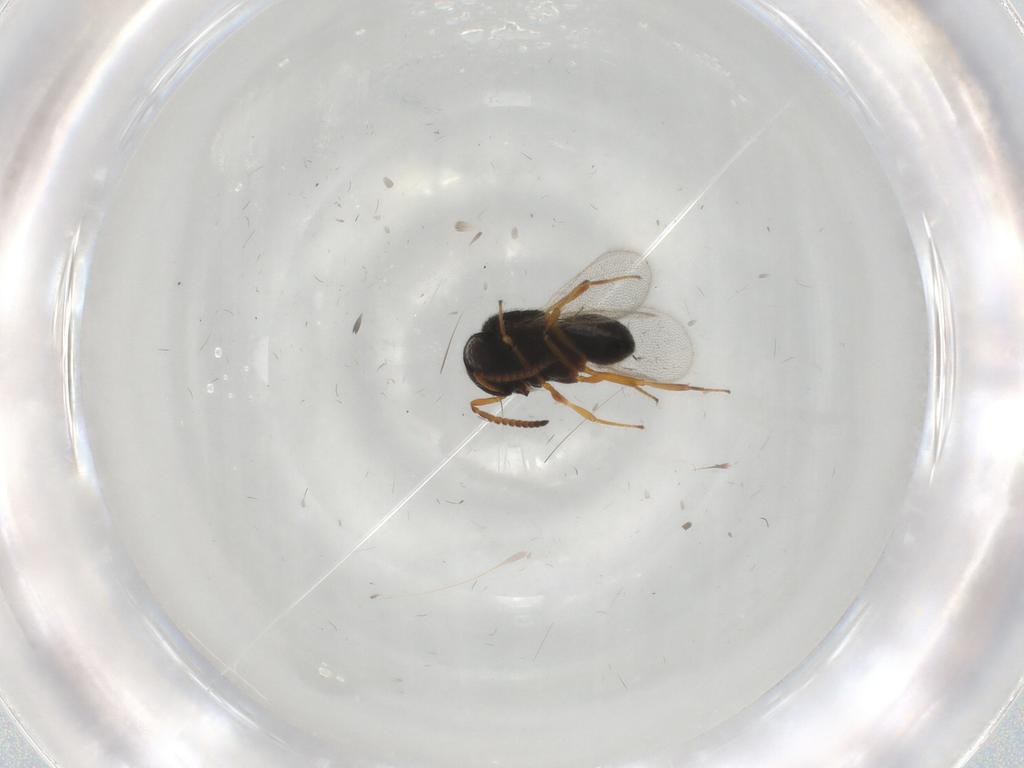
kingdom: Animalia
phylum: Arthropoda
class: Insecta
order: Hymenoptera
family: Scelionidae
